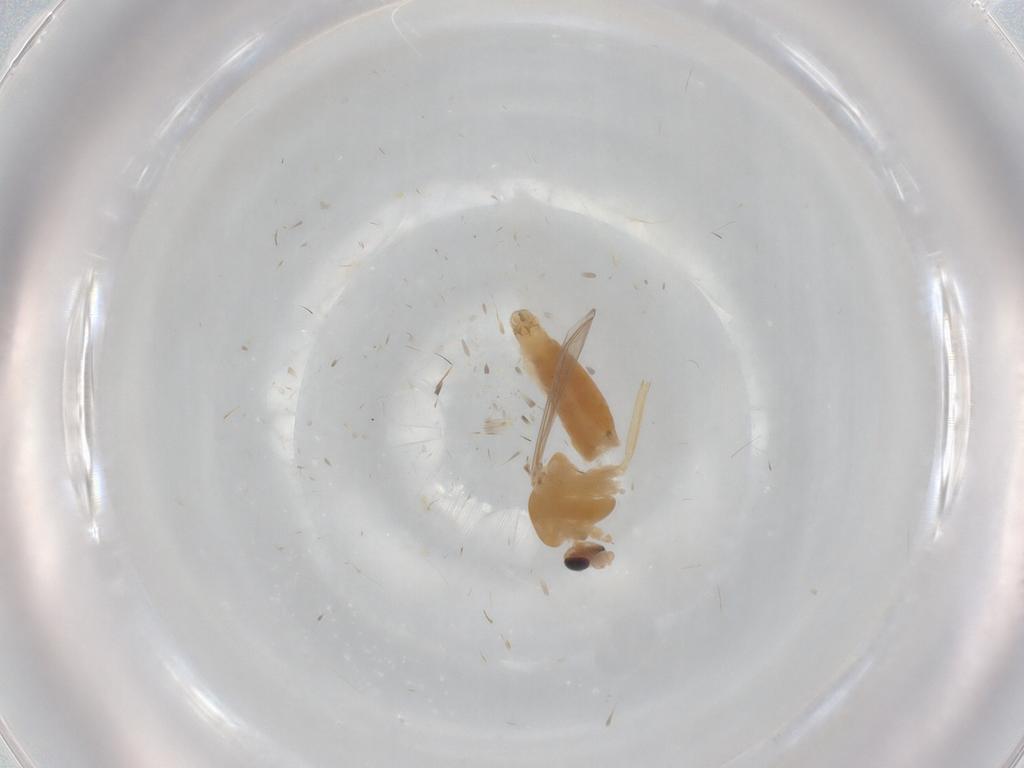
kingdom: Animalia
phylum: Arthropoda
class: Insecta
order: Diptera
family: Chironomidae
